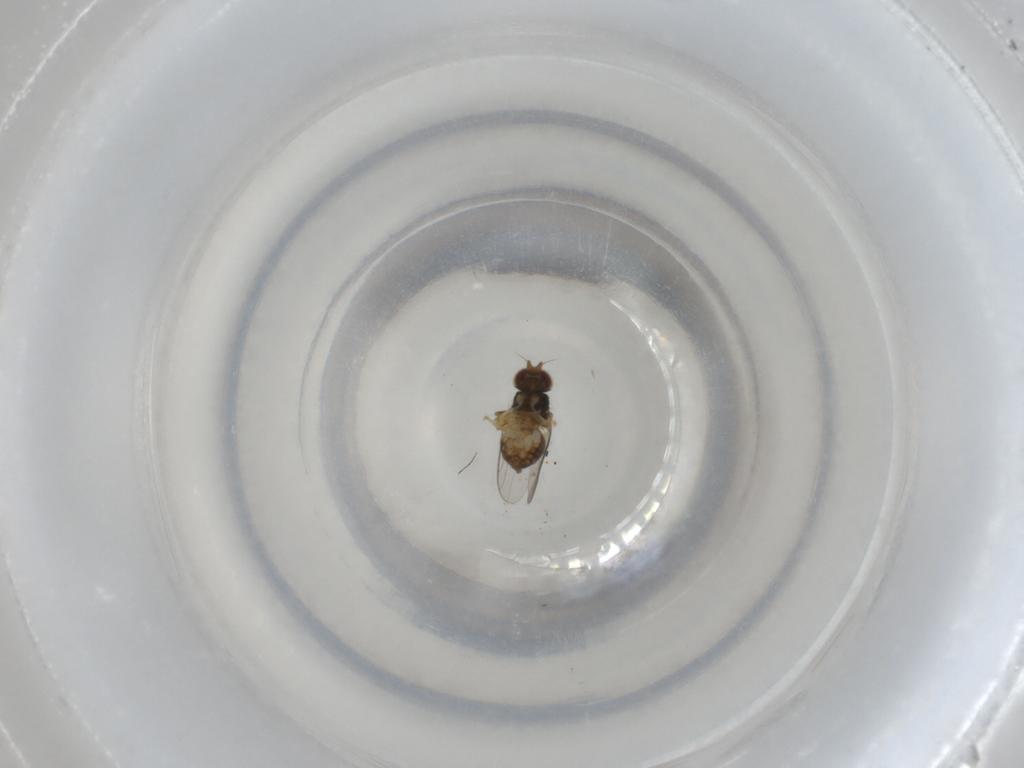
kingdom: Animalia
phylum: Arthropoda
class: Insecta
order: Diptera
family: Chloropidae
